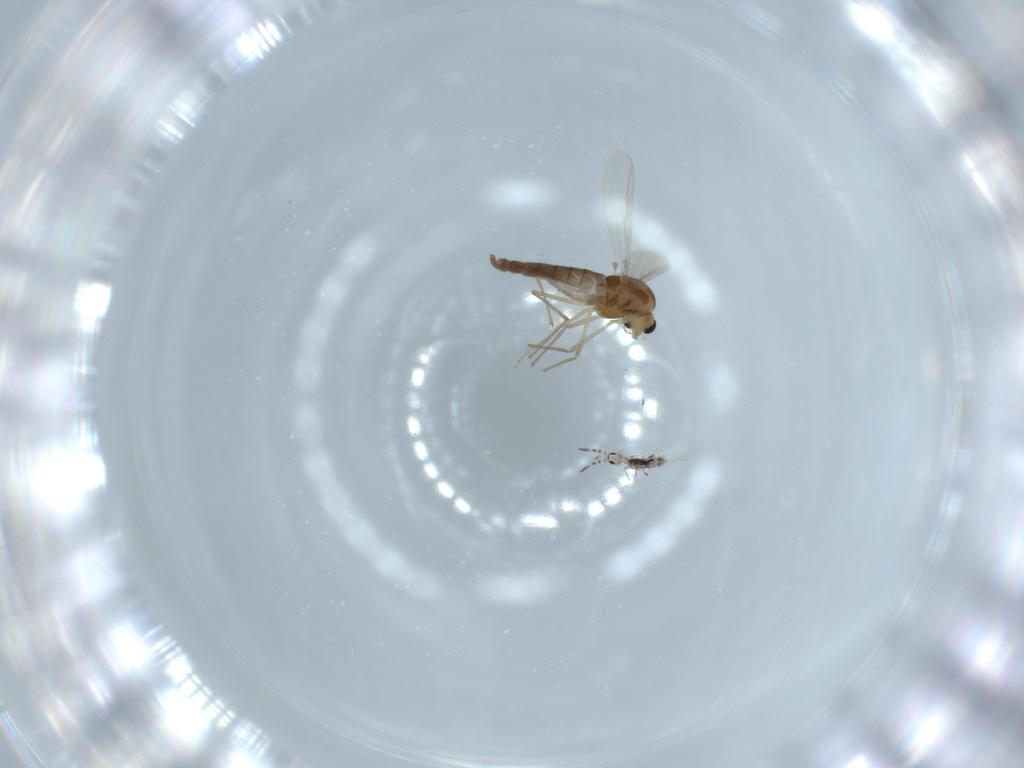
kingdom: Animalia
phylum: Arthropoda
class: Insecta
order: Diptera
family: Chironomidae
